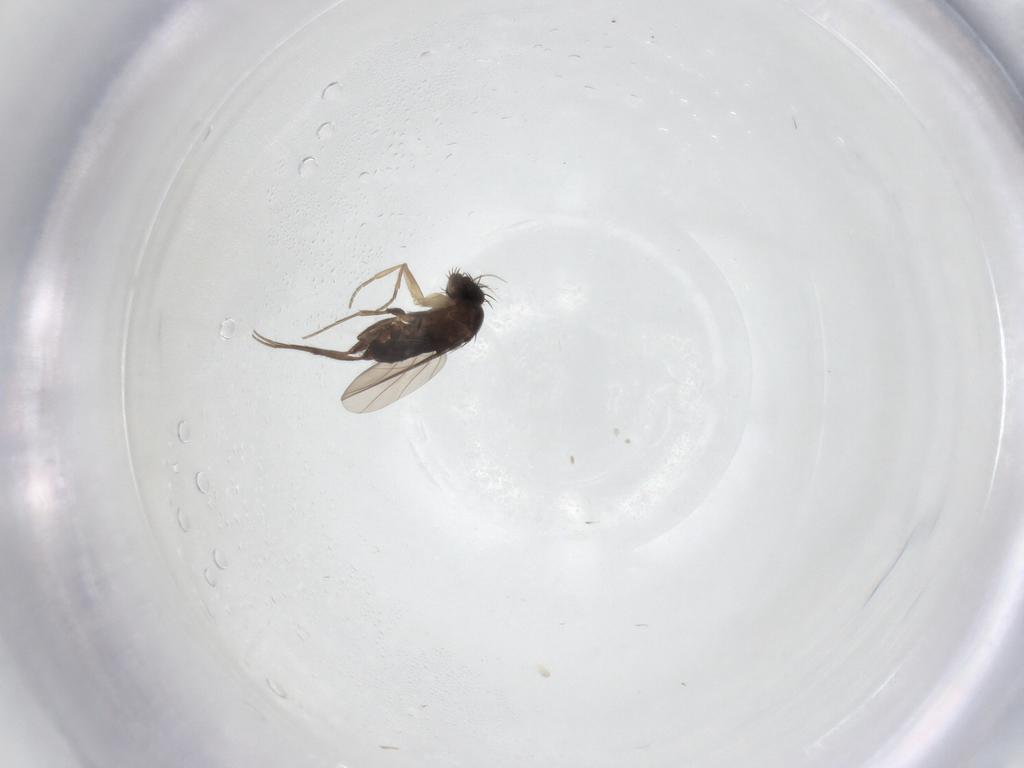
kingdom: Animalia
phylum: Arthropoda
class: Insecta
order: Diptera
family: Phoridae
